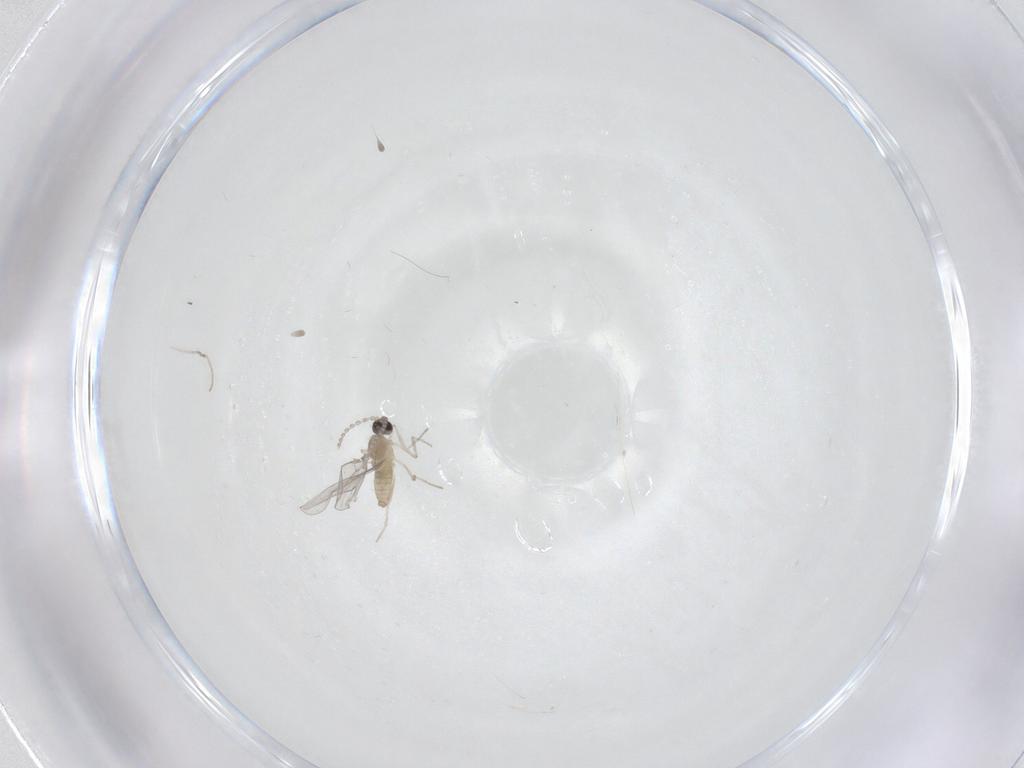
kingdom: Animalia
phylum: Arthropoda
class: Insecta
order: Diptera
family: Cecidomyiidae
